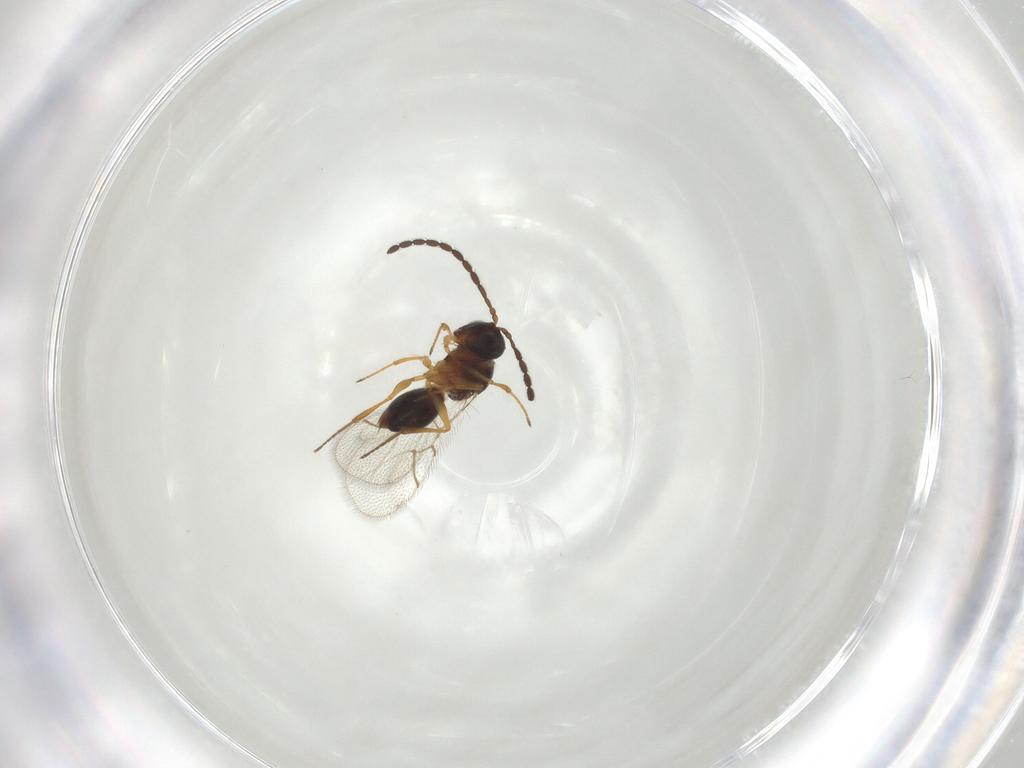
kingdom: Animalia
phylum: Arthropoda
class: Insecta
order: Hymenoptera
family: Figitidae
